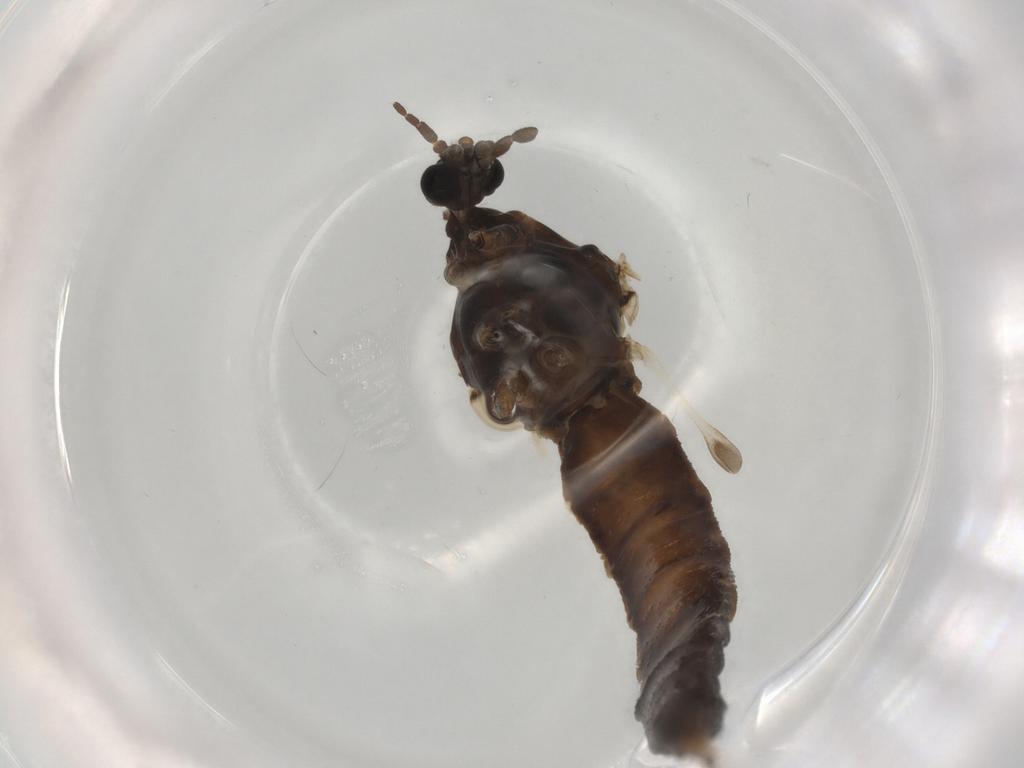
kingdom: Animalia
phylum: Arthropoda
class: Insecta
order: Diptera
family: Trichoceridae
